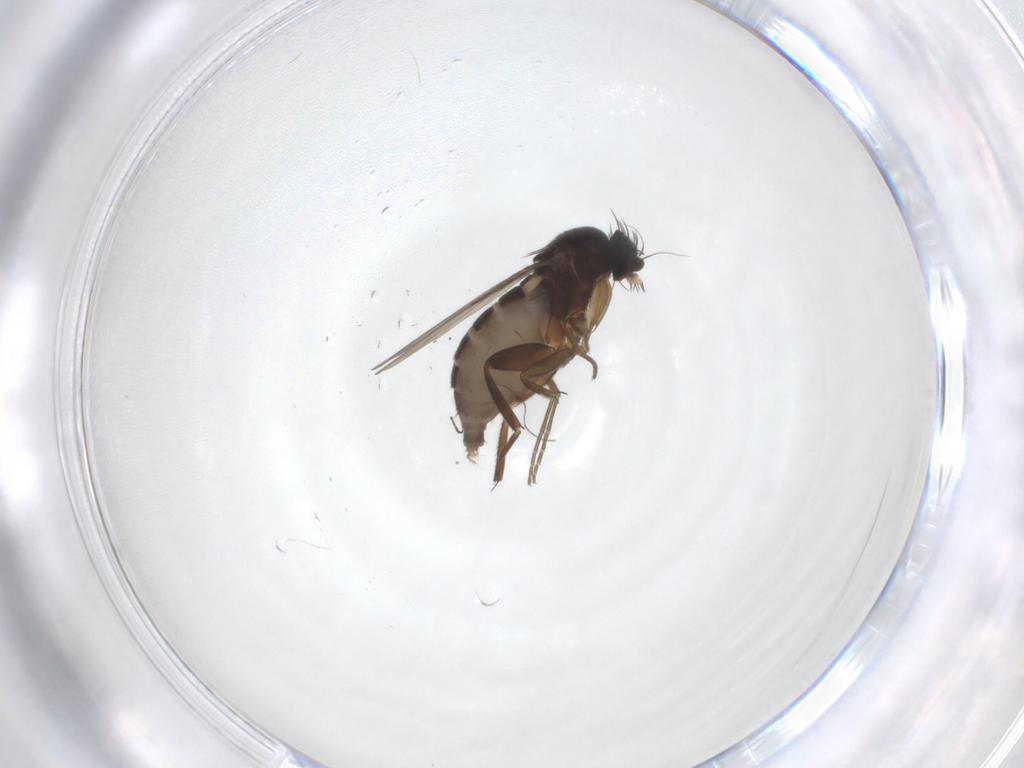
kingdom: Animalia
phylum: Arthropoda
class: Insecta
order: Diptera
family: Phoridae
